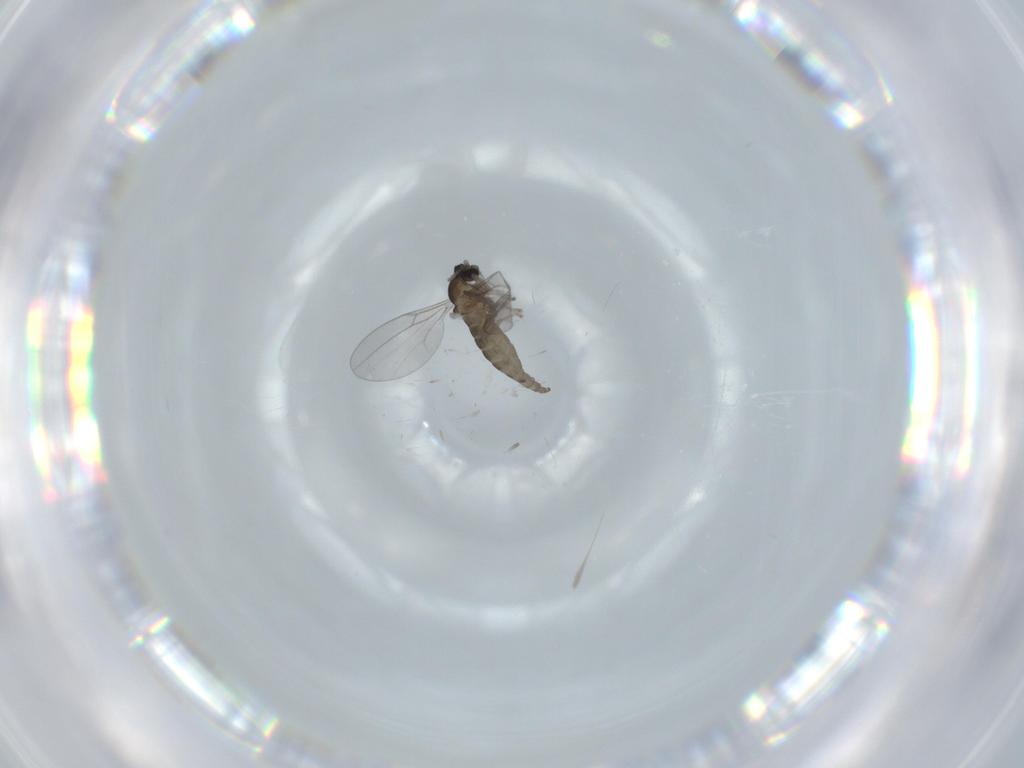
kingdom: Animalia
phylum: Arthropoda
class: Insecta
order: Diptera
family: Cecidomyiidae
